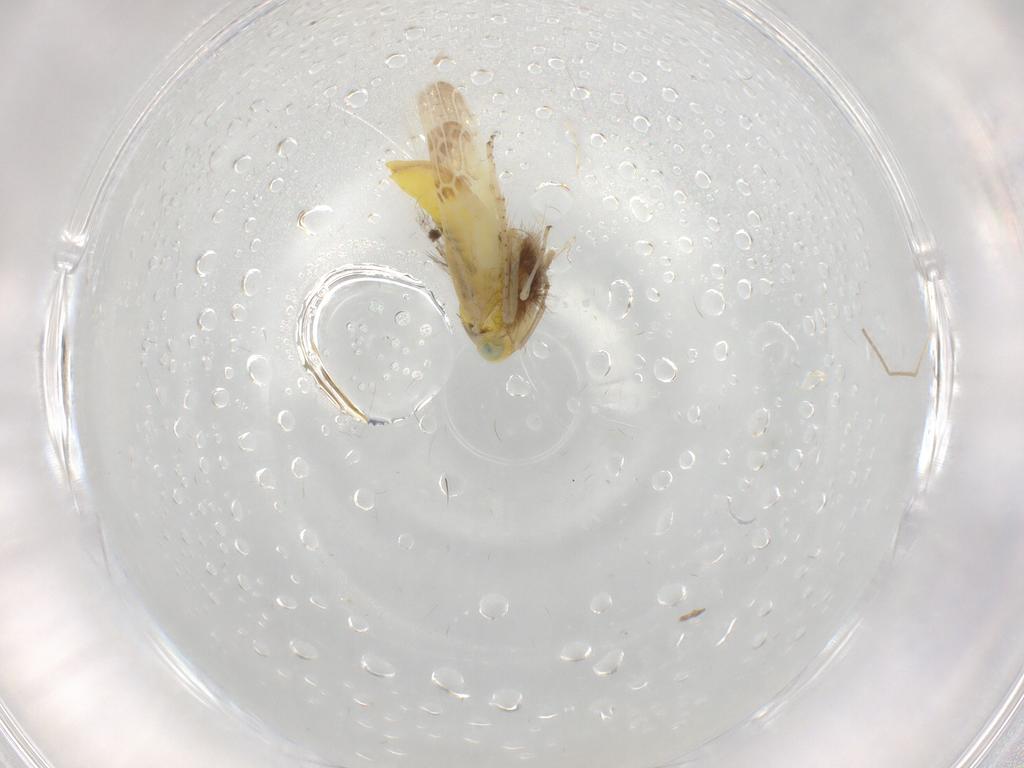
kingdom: Animalia
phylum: Arthropoda
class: Insecta
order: Hemiptera
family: Cicadellidae
